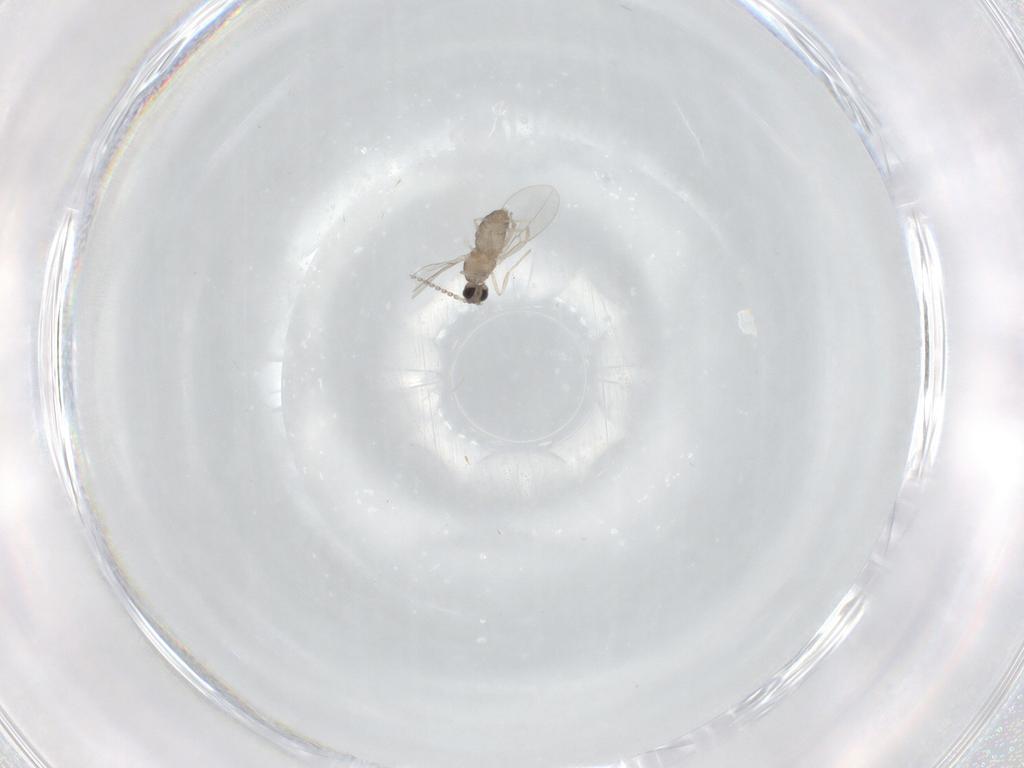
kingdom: Animalia
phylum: Arthropoda
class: Insecta
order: Diptera
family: Cecidomyiidae
